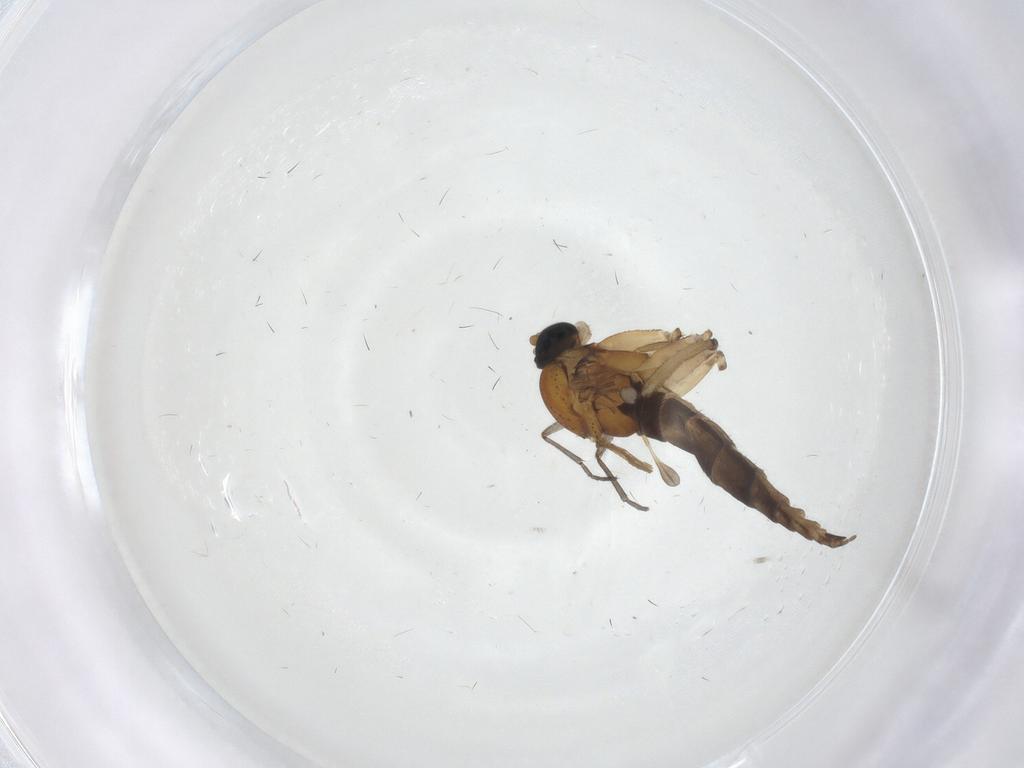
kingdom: Animalia
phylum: Arthropoda
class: Insecta
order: Diptera
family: Sciaridae
